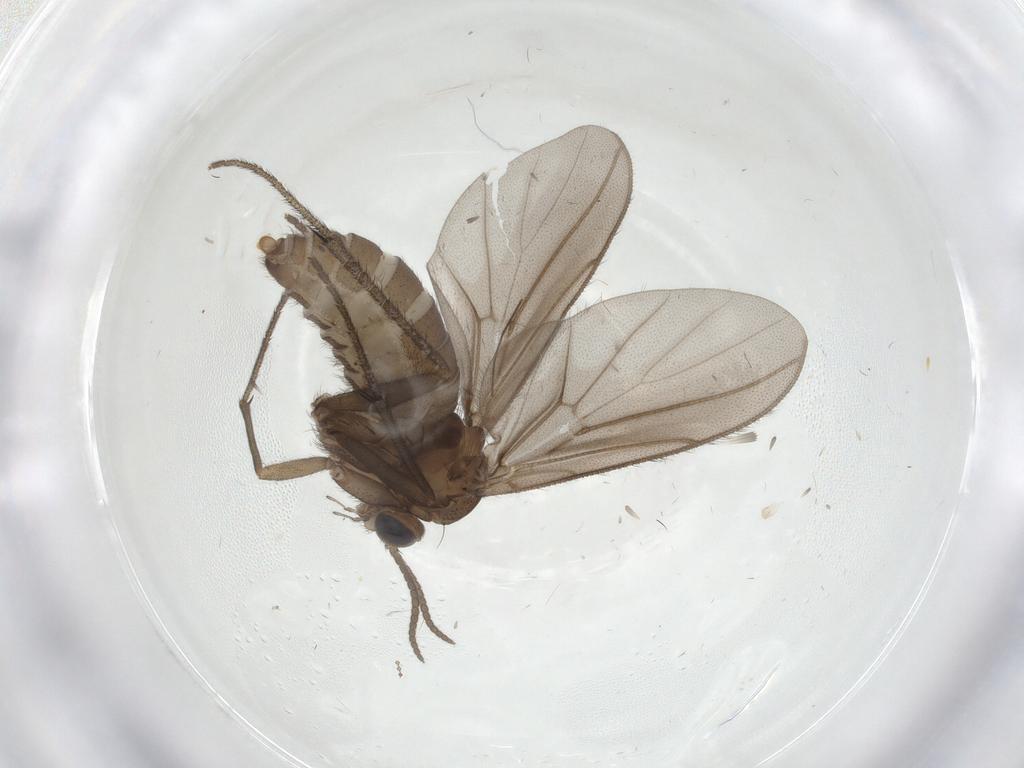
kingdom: Animalia
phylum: Arthropoda
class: Insecta
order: Diptera
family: Diadocidiidae
